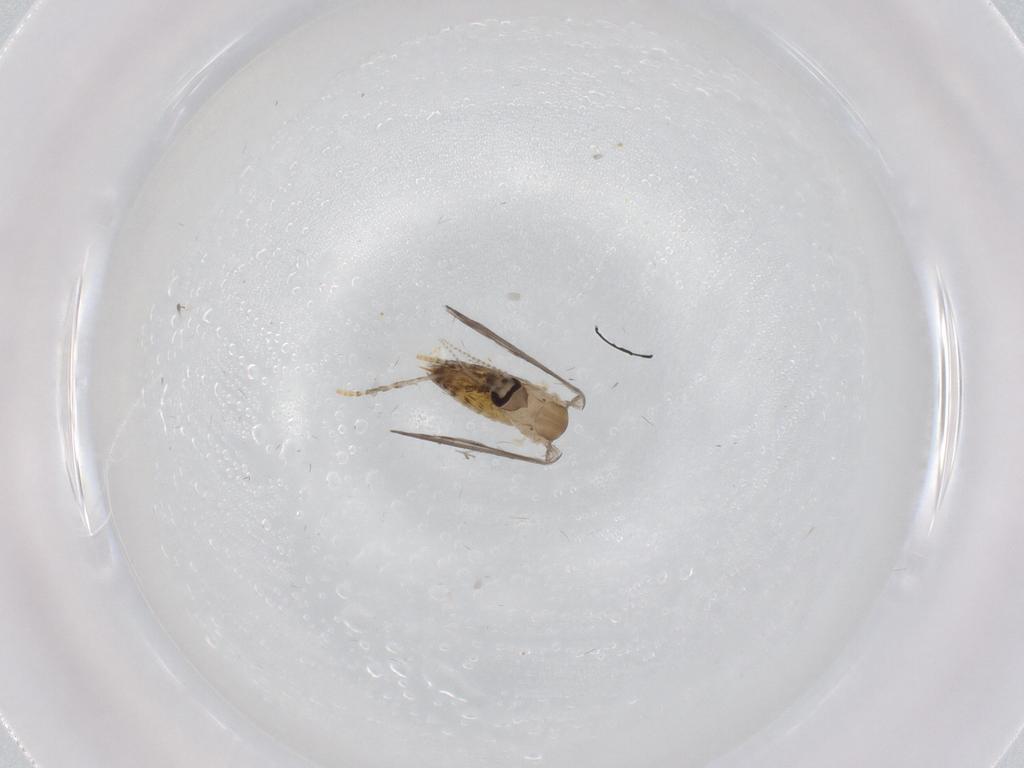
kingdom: Animalia
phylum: Arthropoda
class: Insecta
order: Diptera
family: Psychodidae
